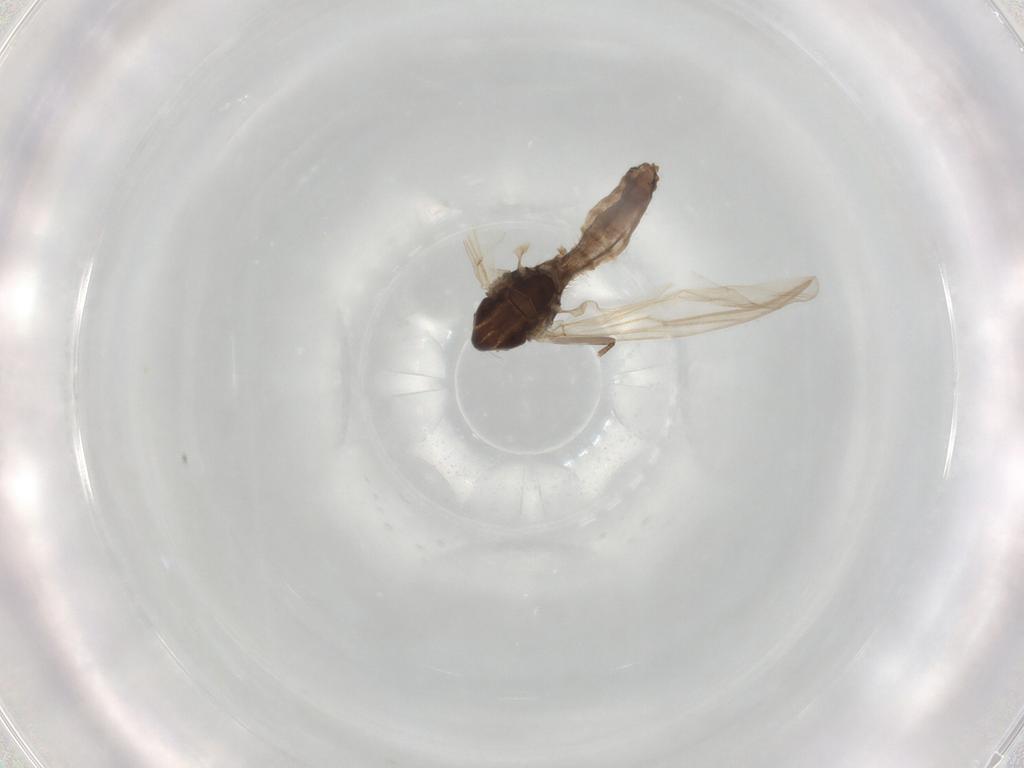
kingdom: Animalia
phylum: Arthropoda
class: Insecta
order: Diptera
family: Chironomidae
